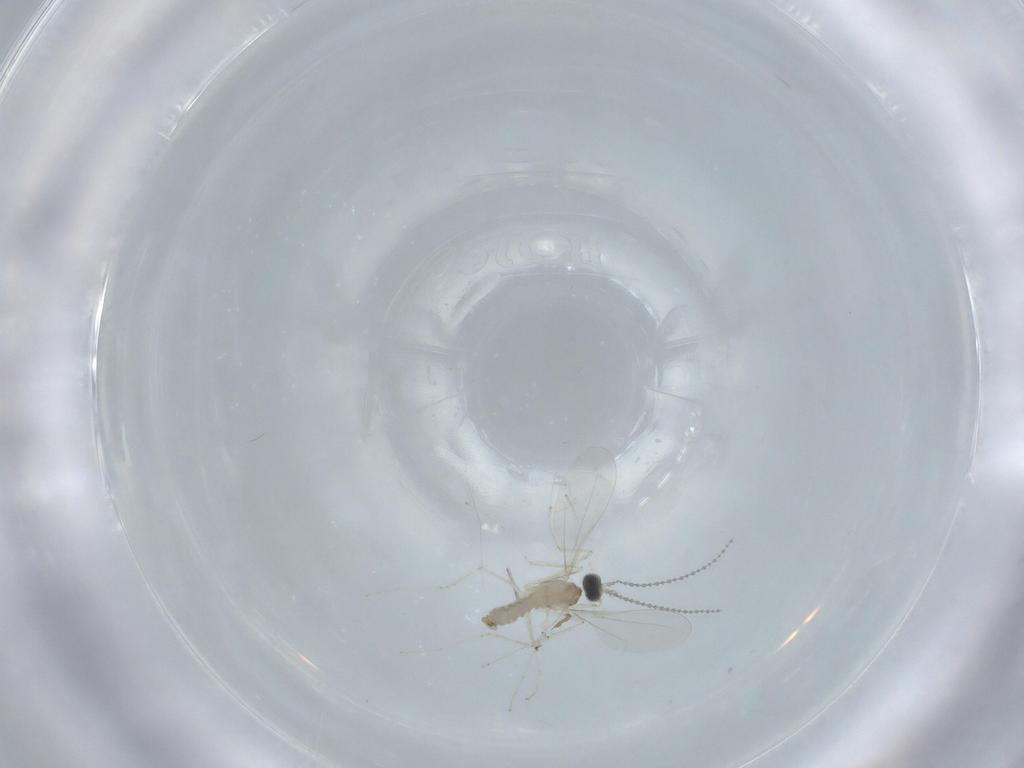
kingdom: Animalia
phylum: Arthropoda
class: Insecta
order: Diptera
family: Cecidomyiidae
